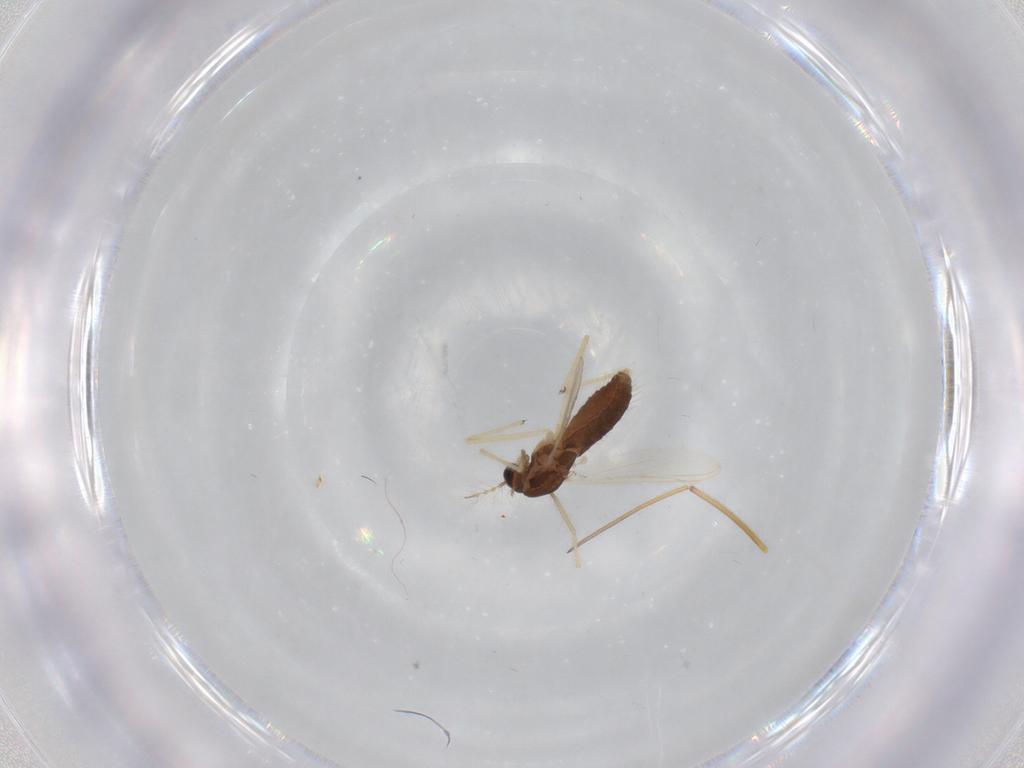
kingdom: Animalia
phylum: Arthropoda
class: Insecta
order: Diptera
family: Chironomidae
